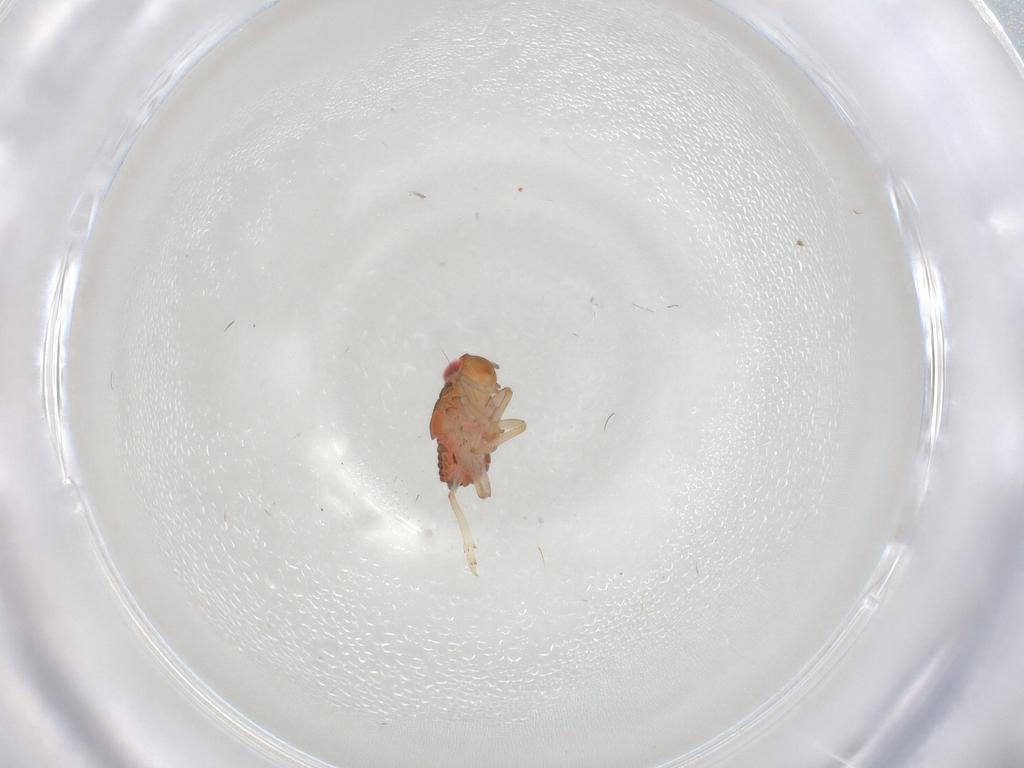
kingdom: Animalia
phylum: Arthropoda
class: Insecta
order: Hemiptera
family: Issidae
